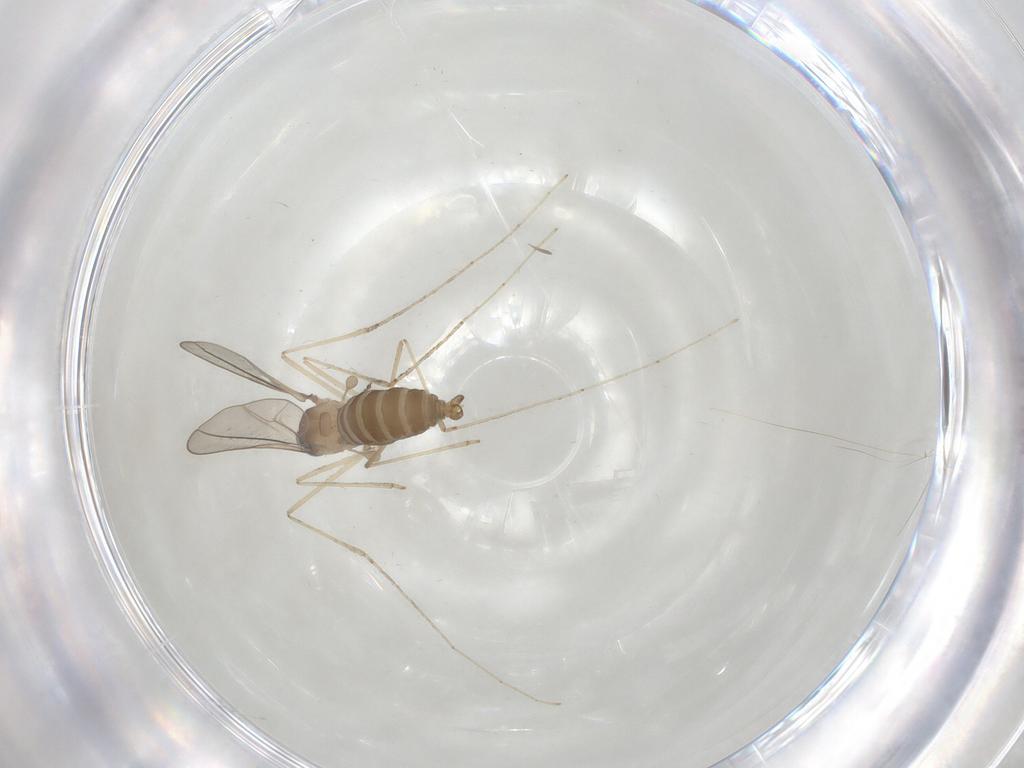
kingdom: Animalia
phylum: Arthropoda
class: Insecta
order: Diptera
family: Cecidomyiidae
